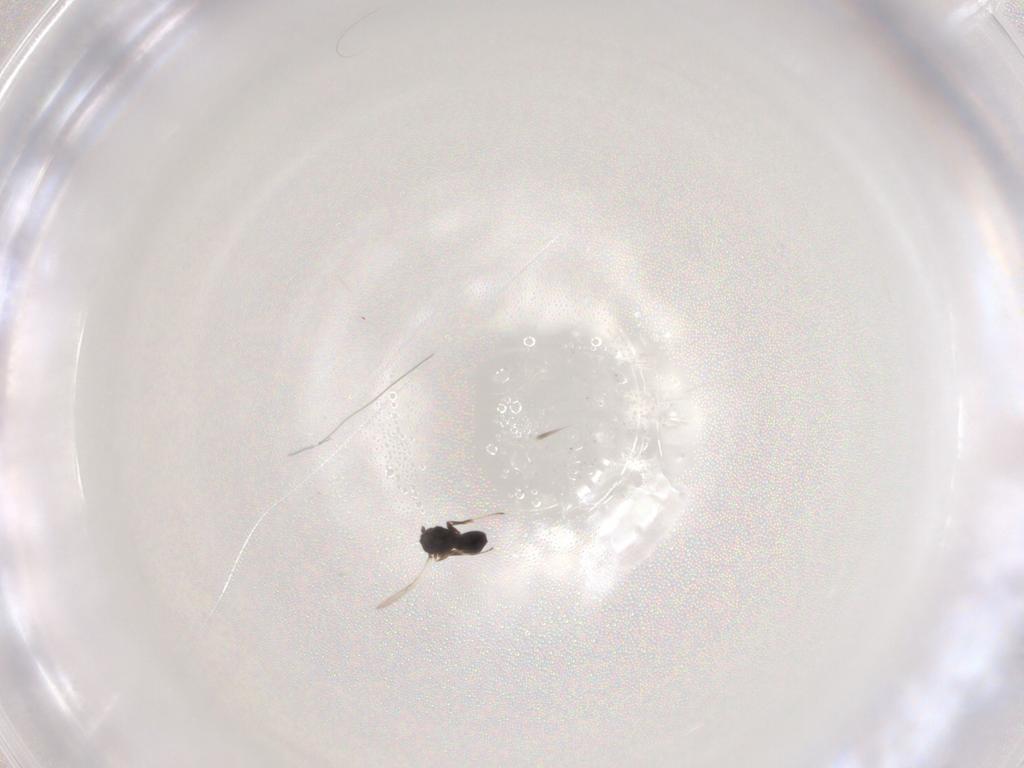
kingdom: Animalia
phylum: Arthropoda
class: Insecta
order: Hymenoptera
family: Scelionidae
